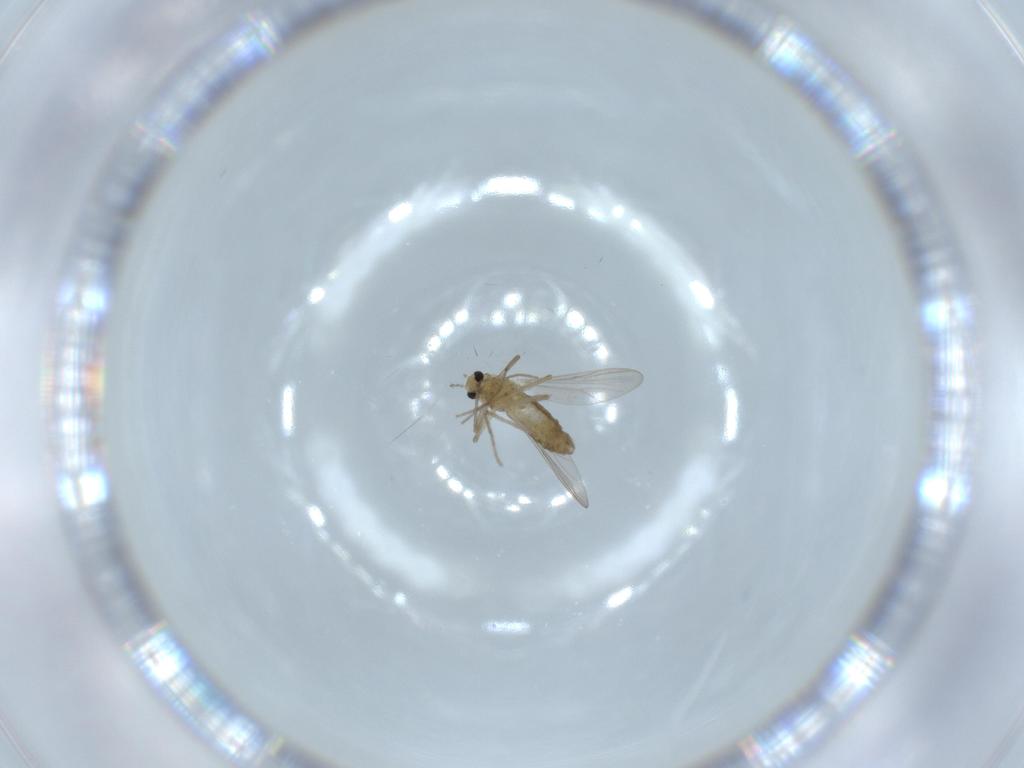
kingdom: Animalia
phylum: Arthropoda
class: Insecta
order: Diptera
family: Chironomidae
